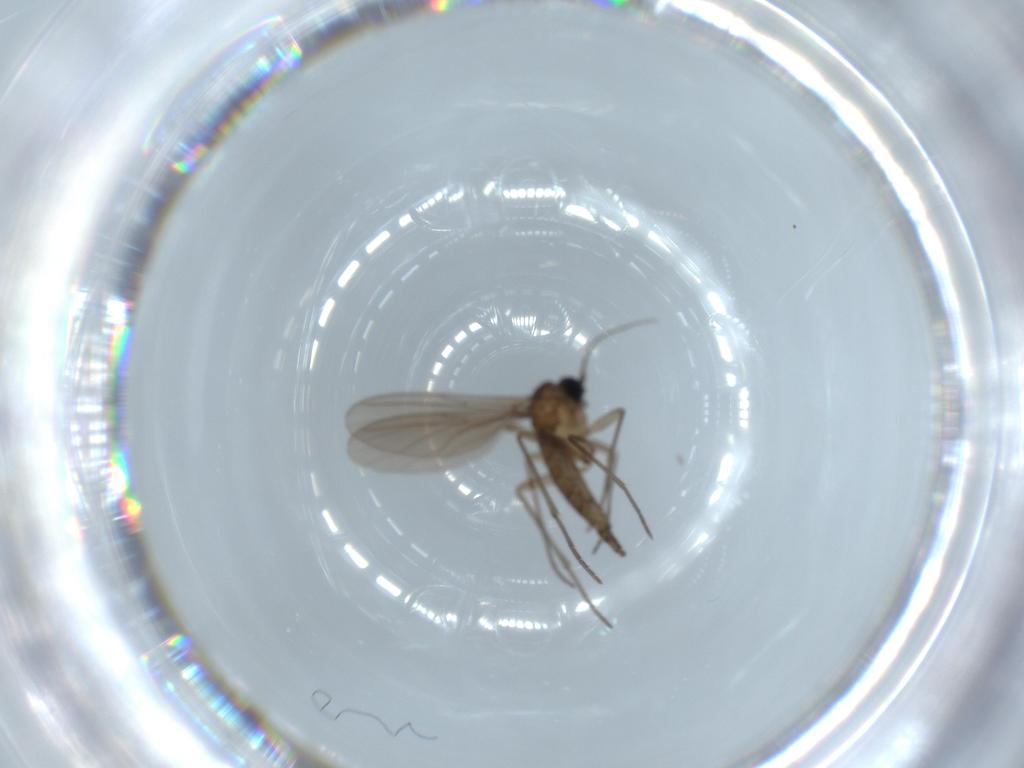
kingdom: Animalia
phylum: Arthropoda
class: Insecta
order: Diptera
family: Sciaridae
